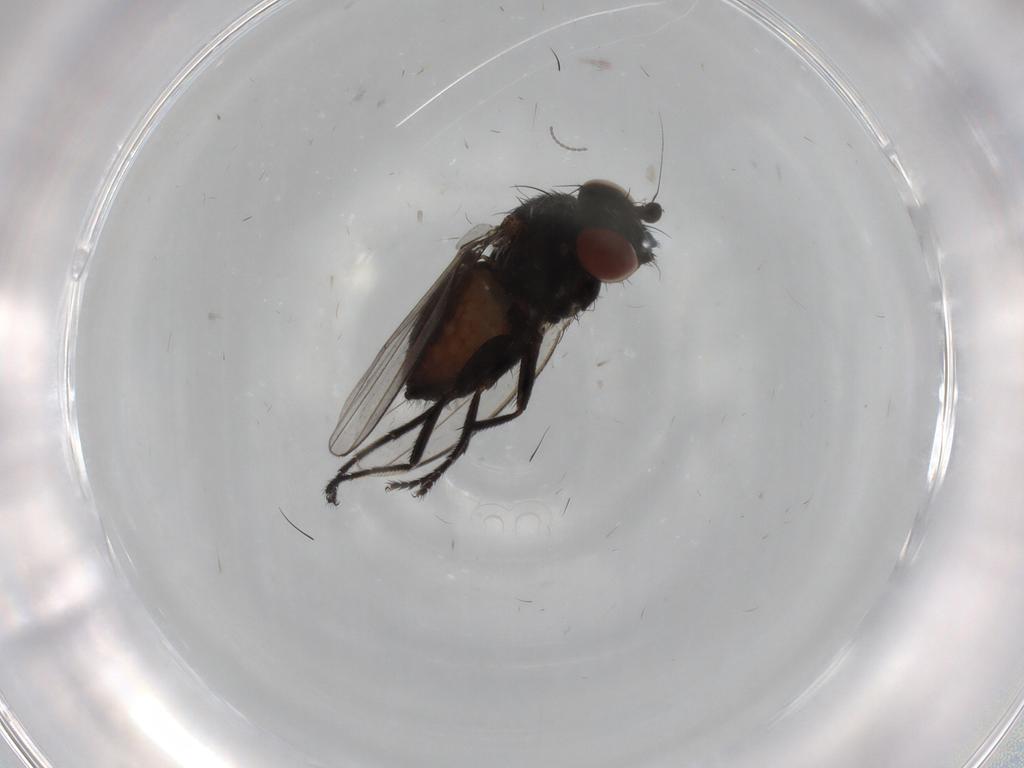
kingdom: Animalia
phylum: Arthropoda
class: Insecta
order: Diptera
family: Milichiidae
